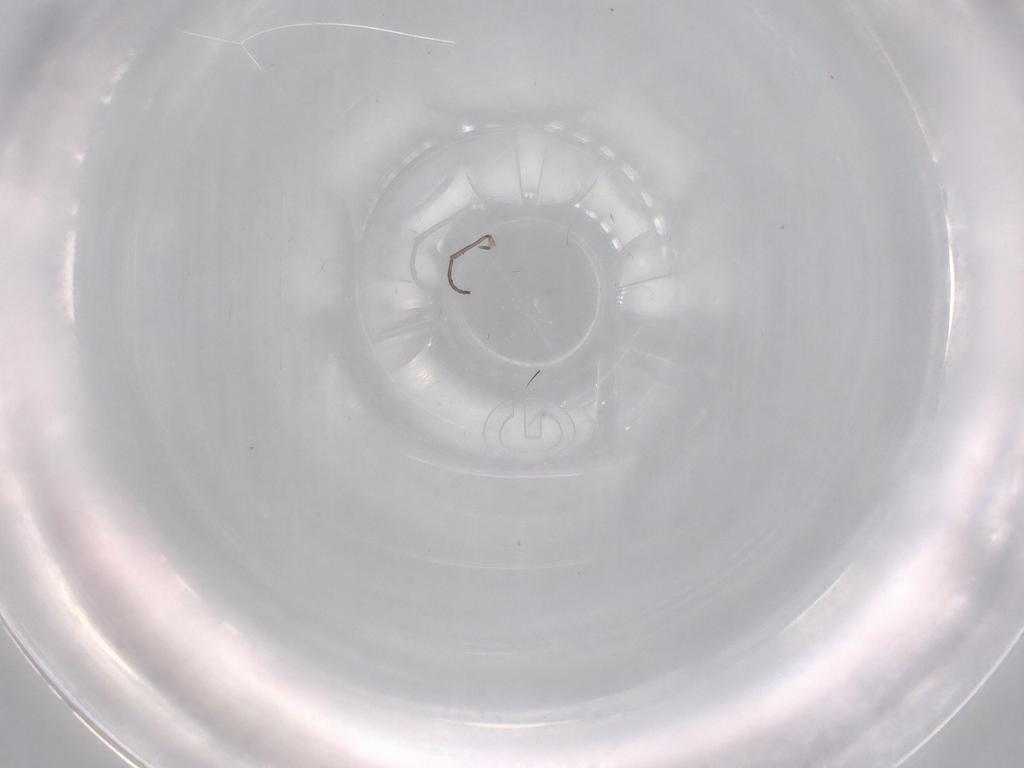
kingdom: Animalia
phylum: Arthropoda
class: Insecta
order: Diptera
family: Cecidomyiidae
